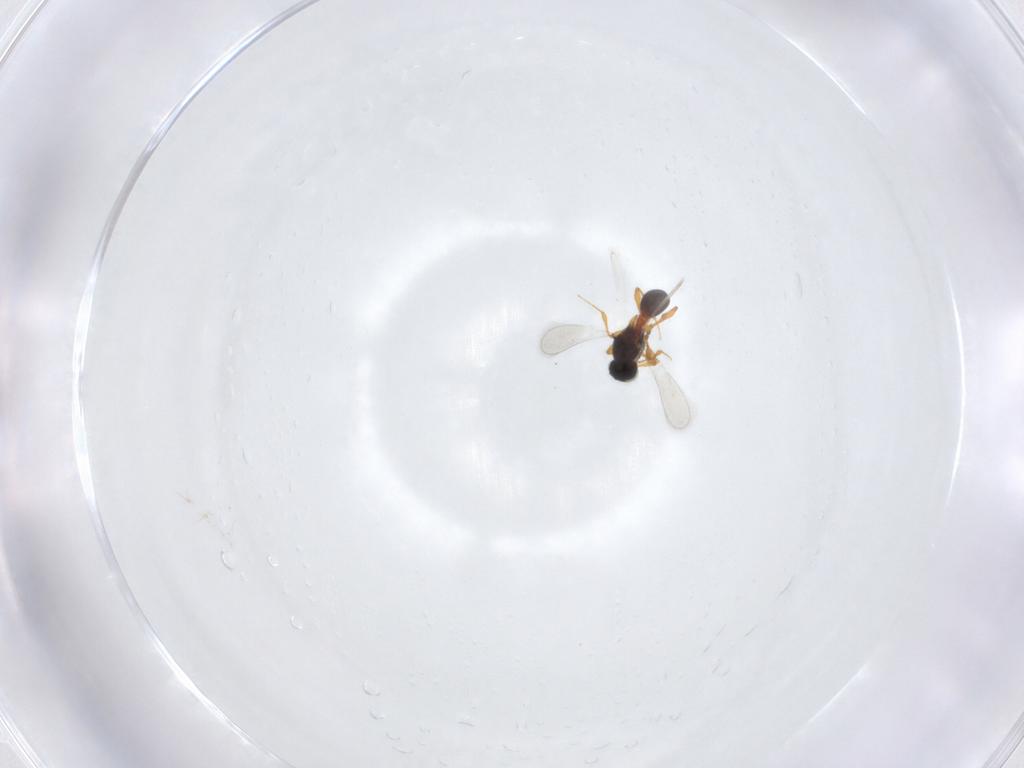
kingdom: Animalia
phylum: Arthropoda
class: Insecta
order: Hymenoptera
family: Platygastridae
